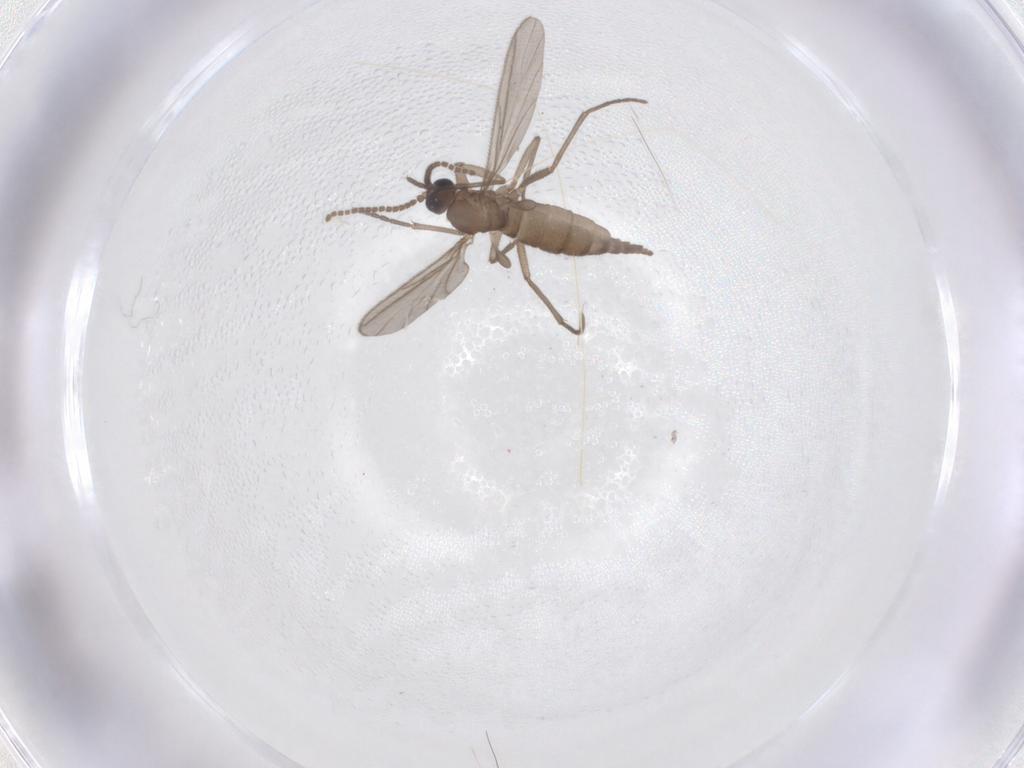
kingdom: Animalia
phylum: Arthropoda
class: Insecta
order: Diptera
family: Sciaridae
